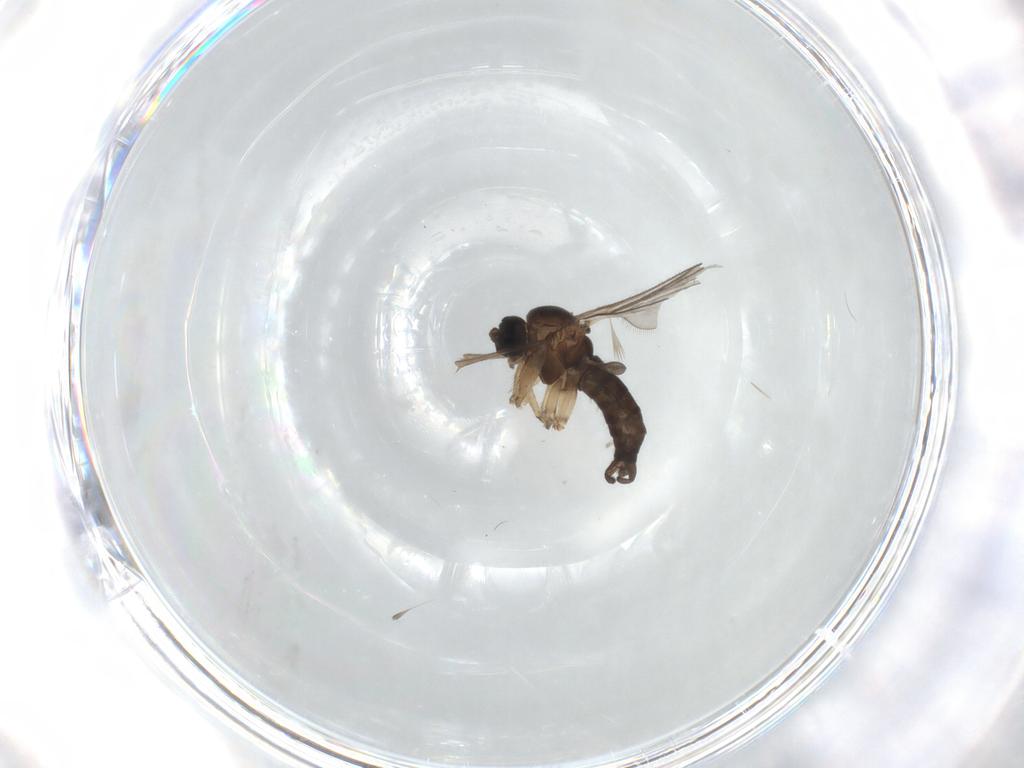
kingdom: Animalia
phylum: Arthropoda
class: Insecta
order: Diptera
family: Sciaridae
